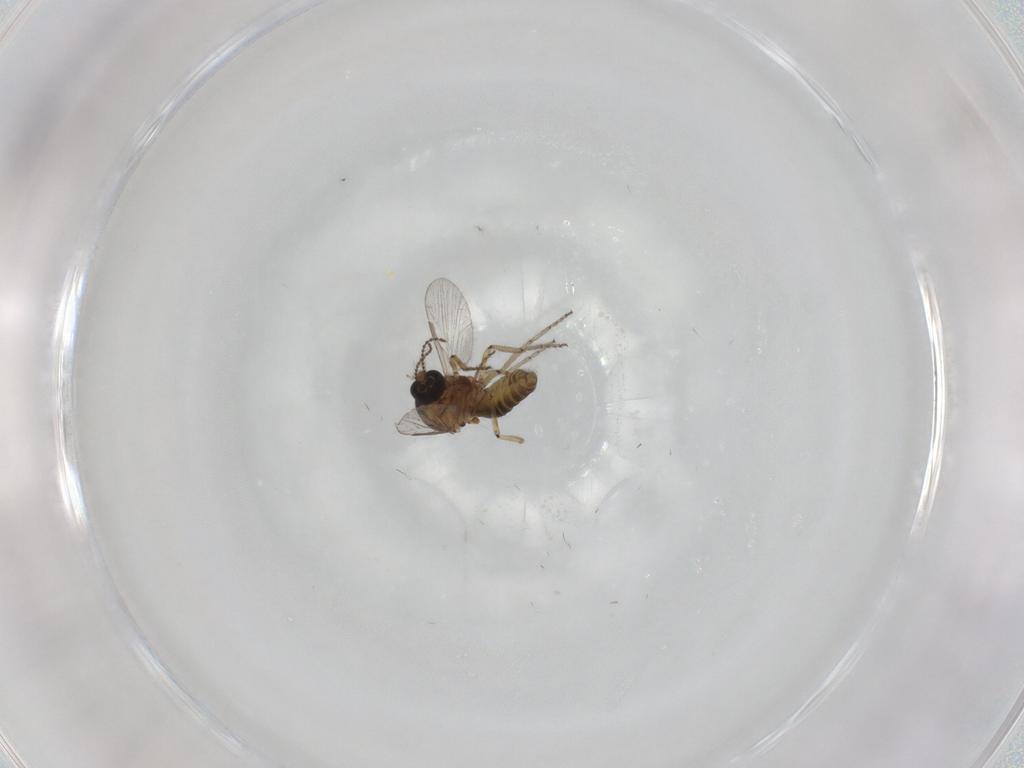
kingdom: Animalia
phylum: Arthropoda
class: Insecta
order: Diptera
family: Ceratopogonidae
